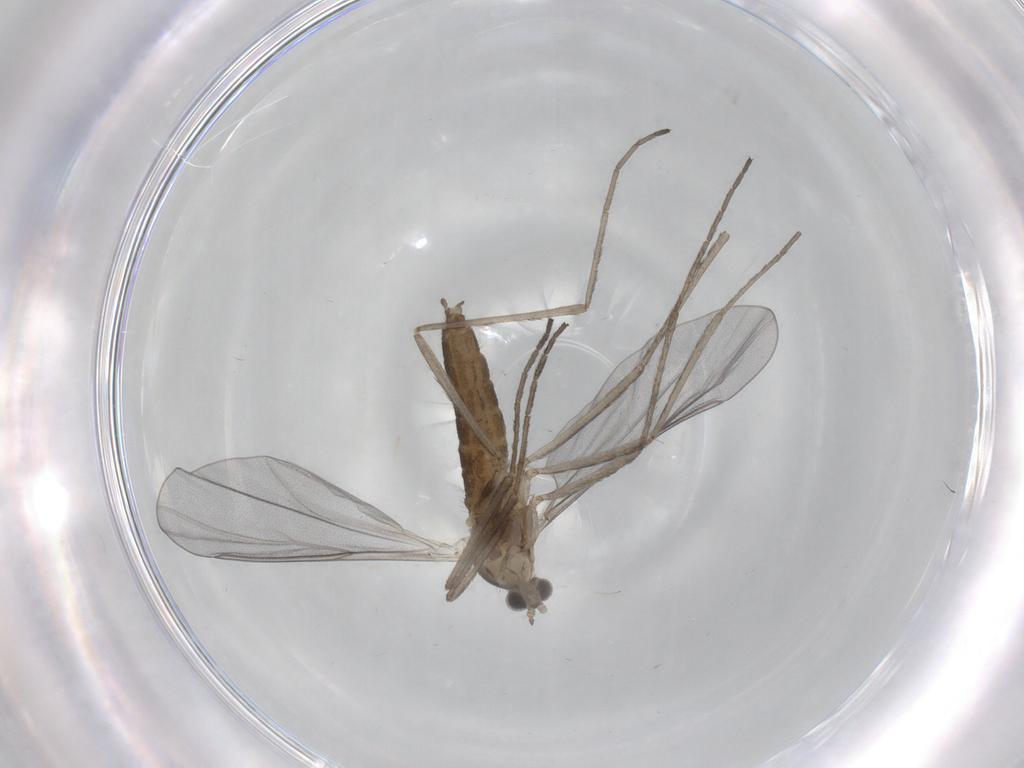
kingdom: Animalia
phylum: Arthropoda
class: Insecta
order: Diptera
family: Cecidomyiidae
